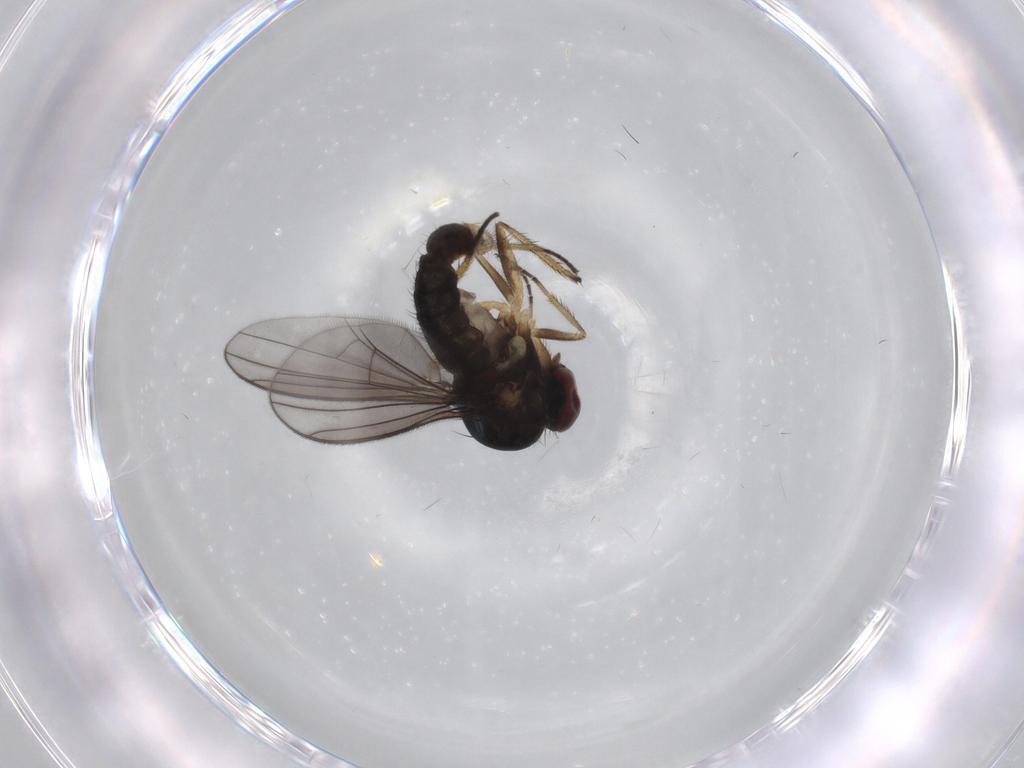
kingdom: Animalia
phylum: Arthropoda
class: Insecta
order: Diptera
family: Dolichopodidae
